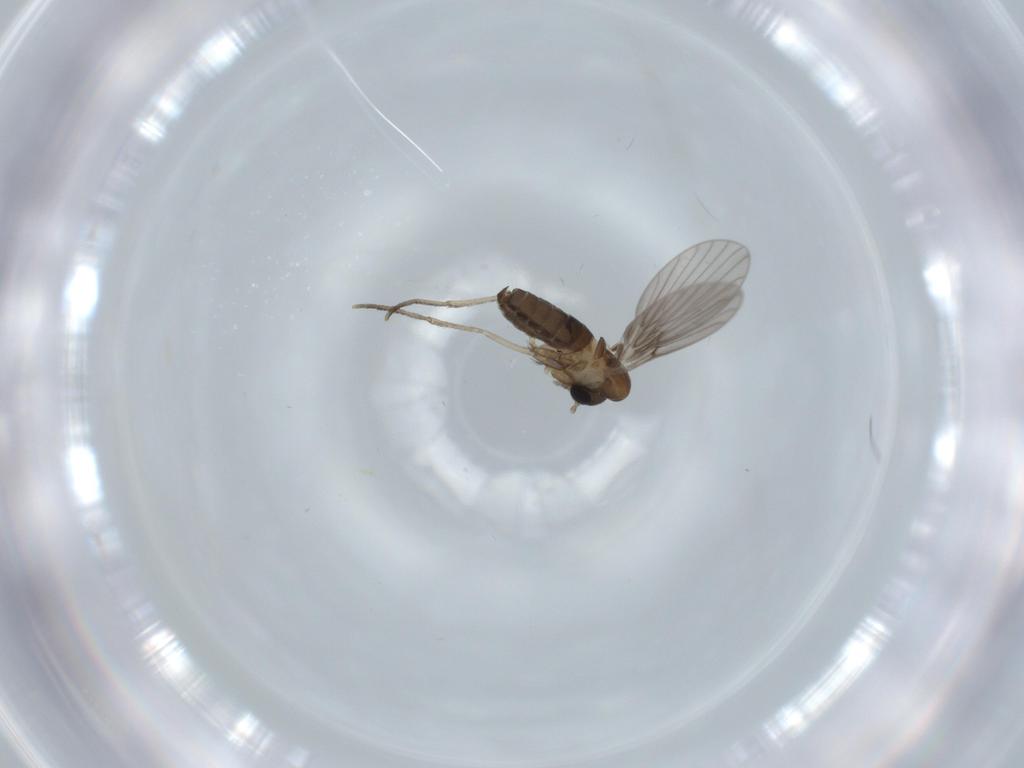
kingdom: Animalia
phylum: Arthropoda
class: Insecta
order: Diptera
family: Psychodidae
